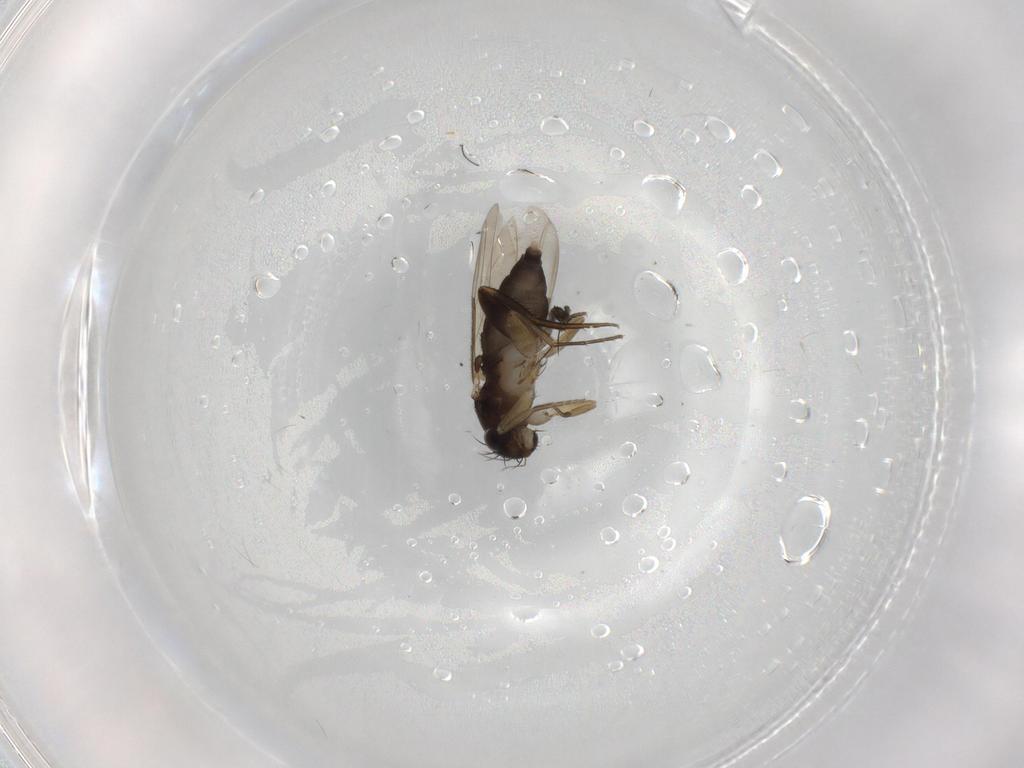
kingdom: Animalia
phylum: Arthropoda
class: Insecta
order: Diptera
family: Phoridae
